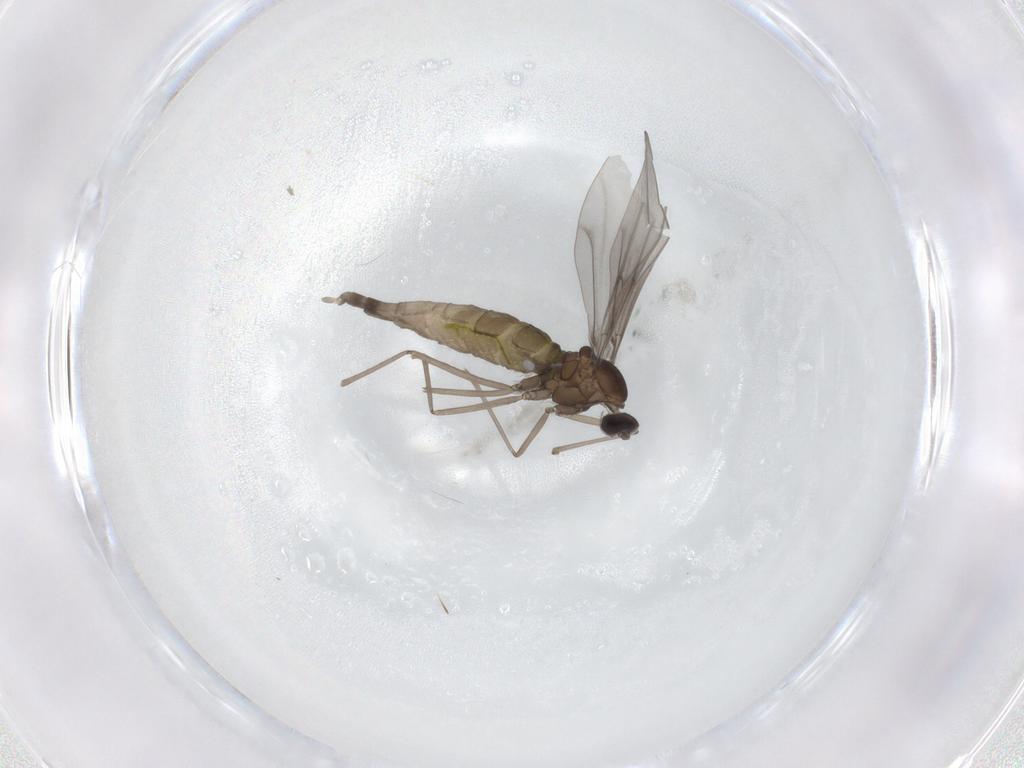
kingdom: Animalia
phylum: Arthropoda
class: Insecta
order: Diptera
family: Cecidomyiidae
